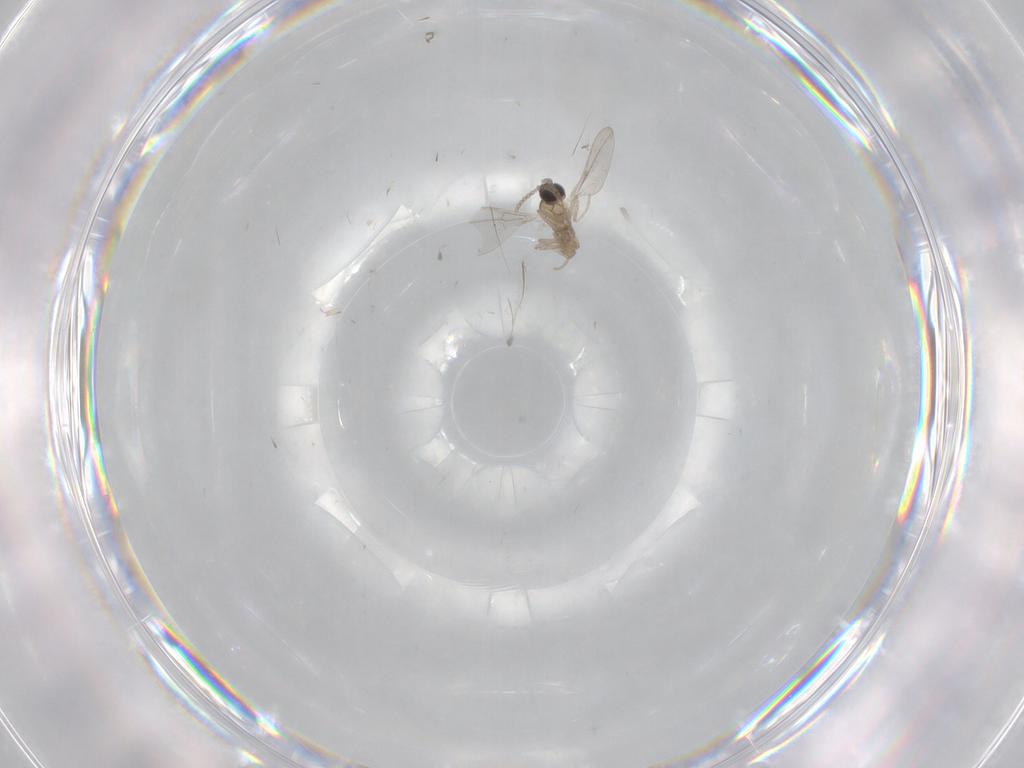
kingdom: Animalia
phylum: Arthropoda
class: Insecta
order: Diptera
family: Cecidomyiidae
